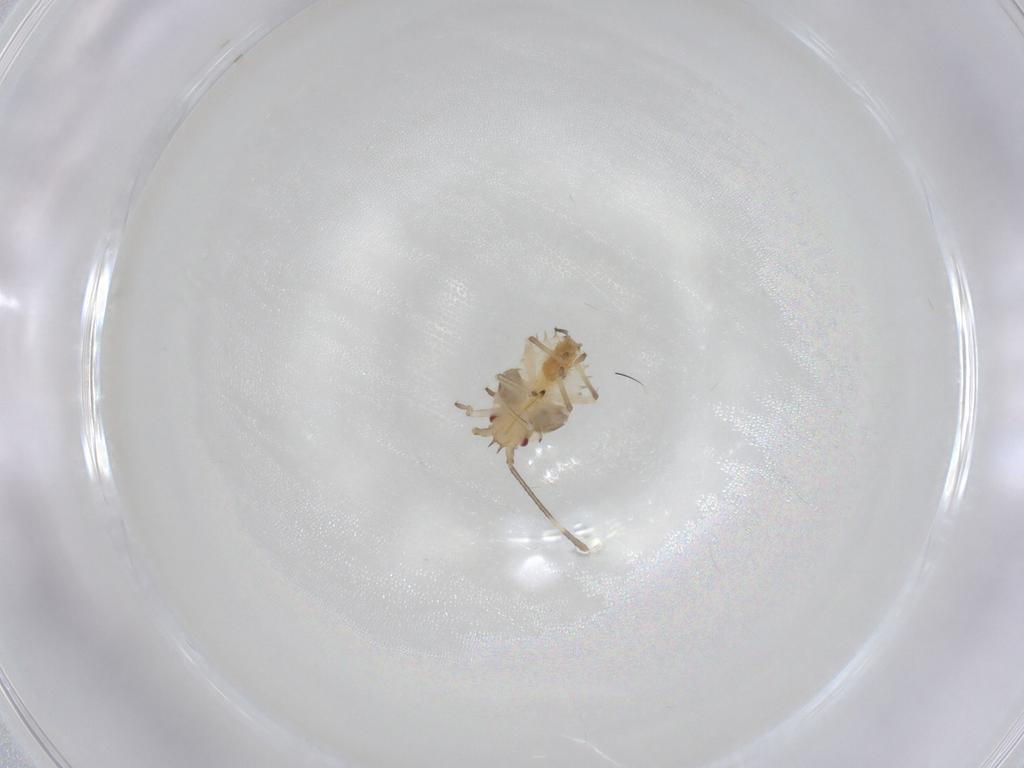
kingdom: Animalia
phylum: Arthropoda
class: Insecta
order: Hemiptera
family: Tingidae
